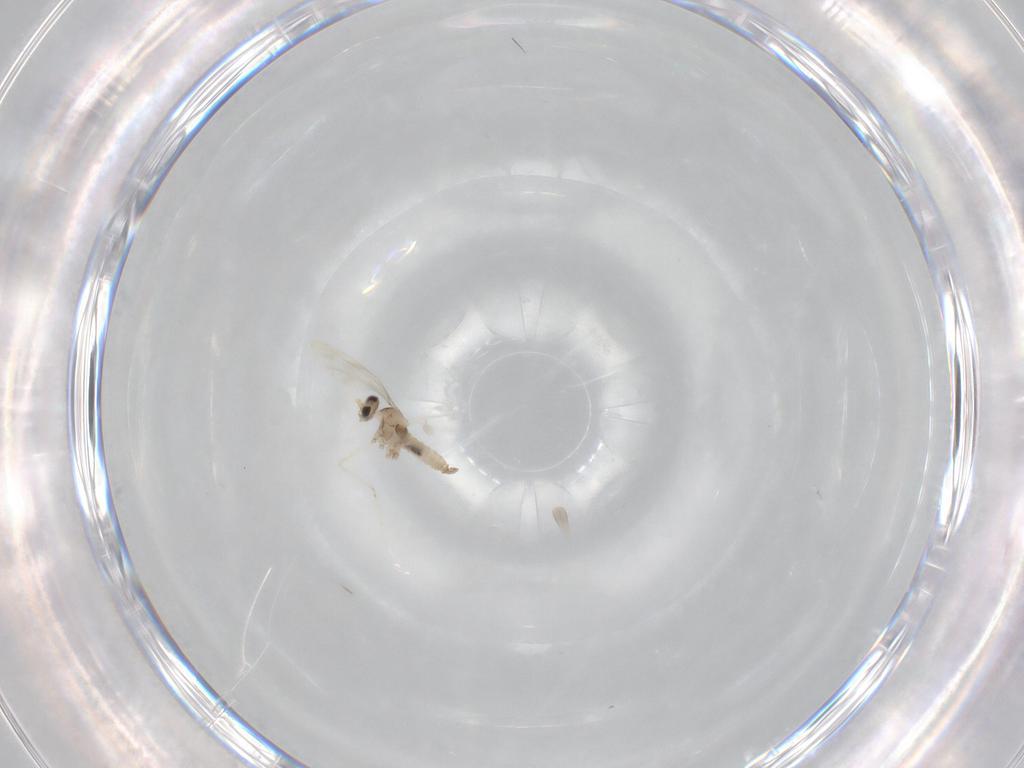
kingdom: Animalia
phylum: Arthropoda
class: Insecta
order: Diptera
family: Cecidomyiidae
